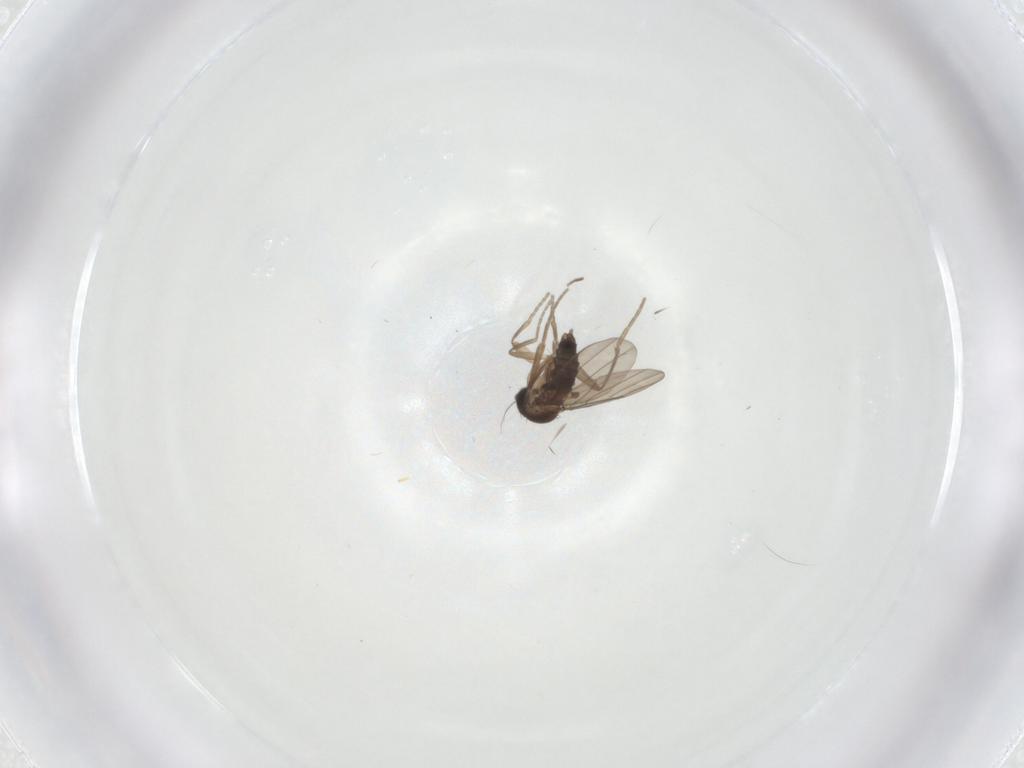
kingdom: Animalia
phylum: Arthropoda
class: Insecta
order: Diptera
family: Phoridae
